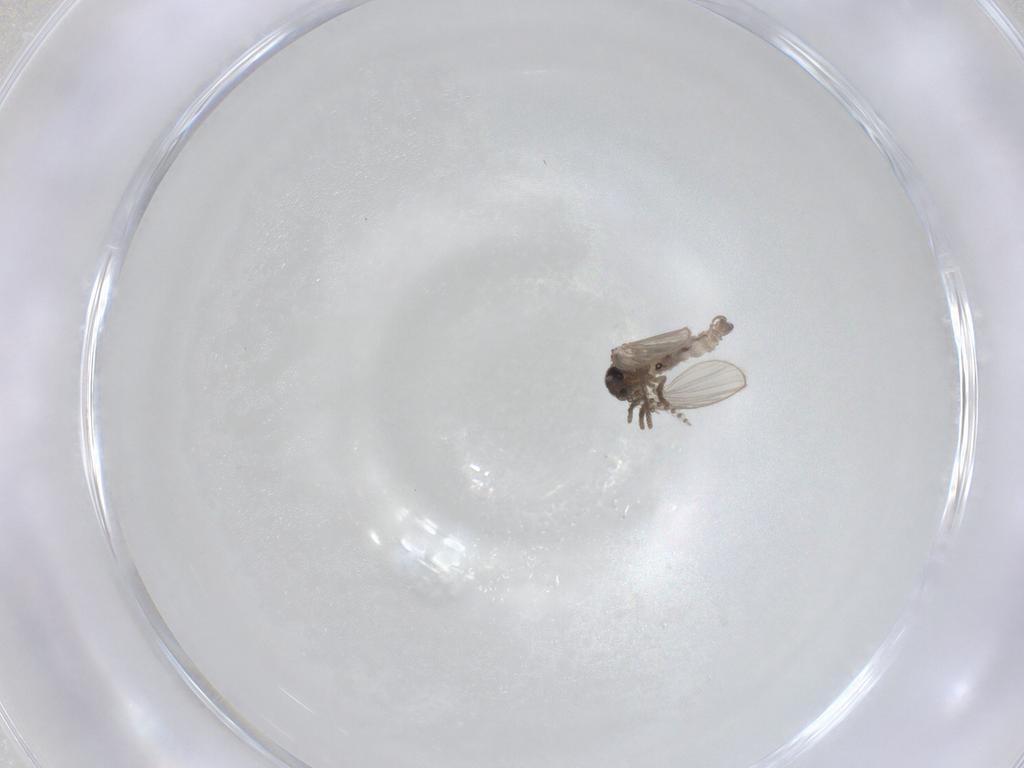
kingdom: Animalia
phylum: Arthropoda
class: Insecta
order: Diptera
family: Psychodidae
